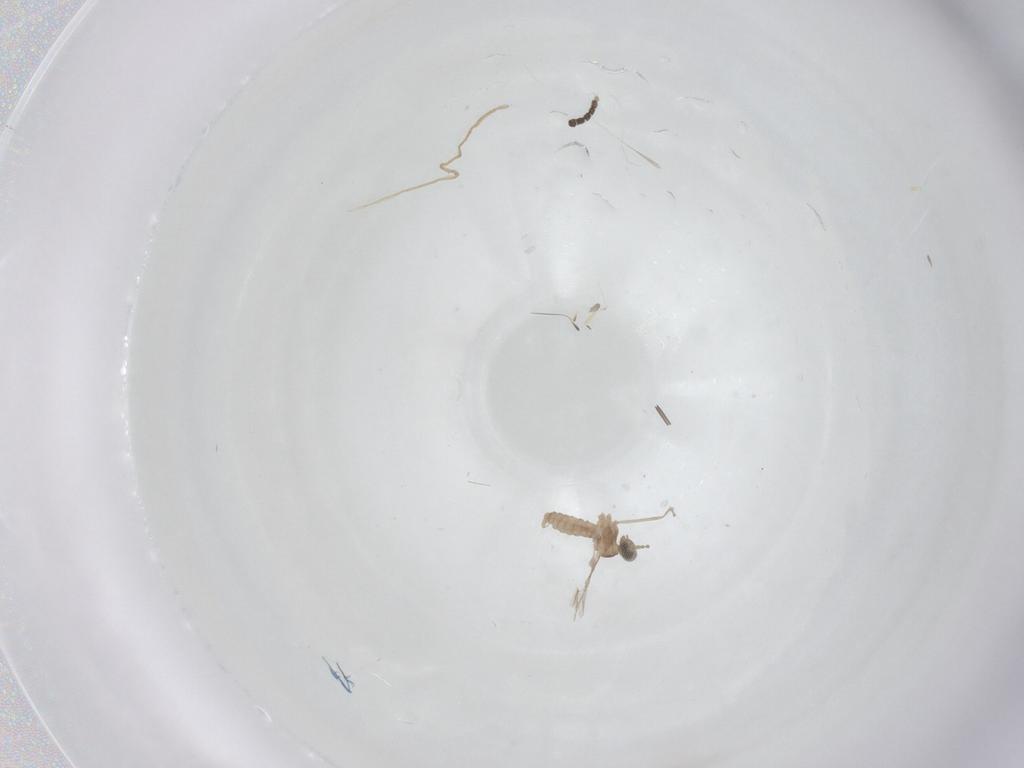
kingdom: Animalia
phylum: Arthropoda
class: Insecta
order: Diptera
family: Cecidomyiidae
